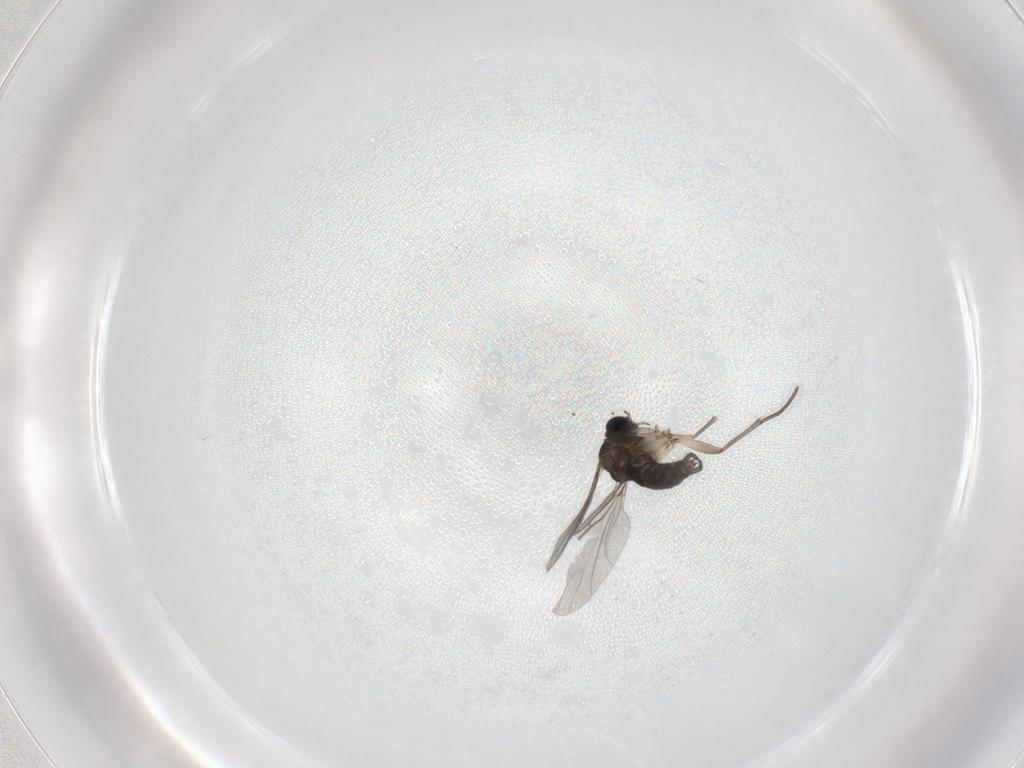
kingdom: Animalia
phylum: Arthropoda
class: Insecta
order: Diptera
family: Sciaridae
